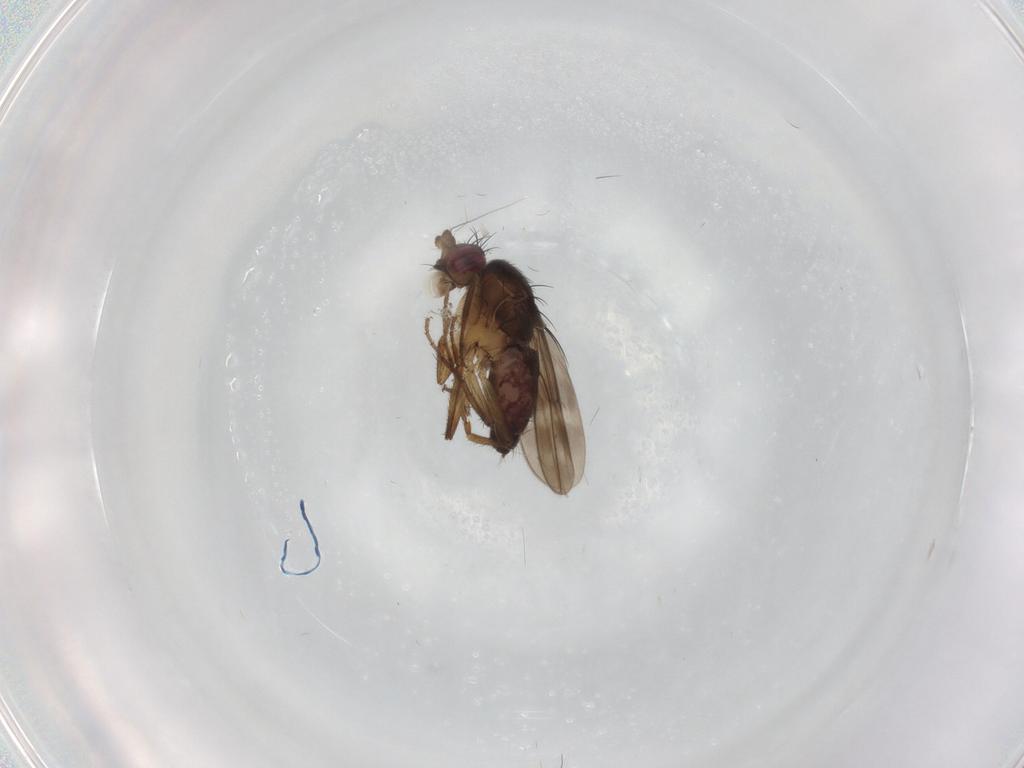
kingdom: Animalia
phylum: Arthropoda
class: Insecta
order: Diptera
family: Sphaeroceridae
